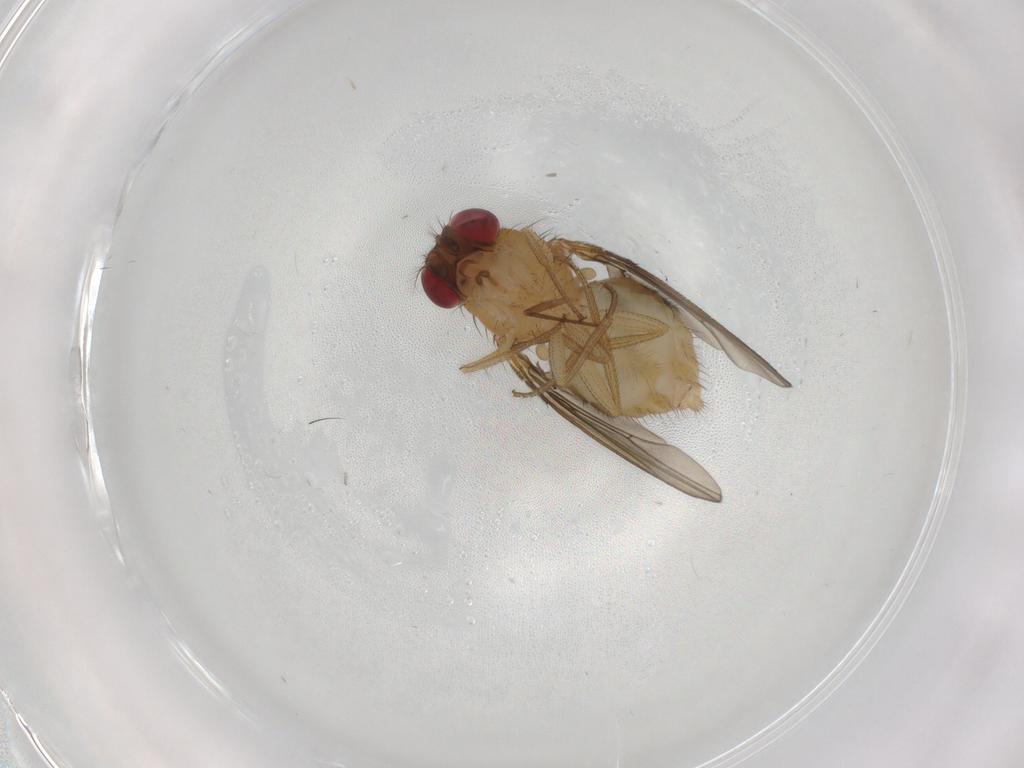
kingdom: Animalia
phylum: Arthropoda
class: Insecta
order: Diptera
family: Drosophilidae
